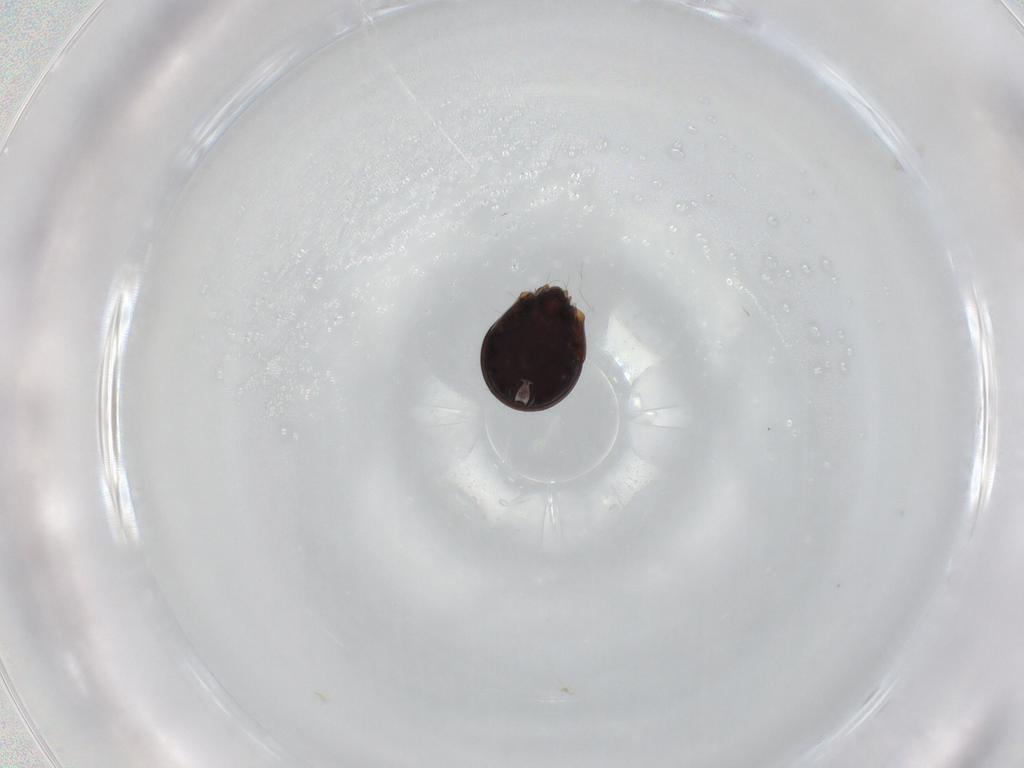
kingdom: Animalia
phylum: Arthropoda
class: Arachnida
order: Sarcoptiformes
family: Ceratozetidae
